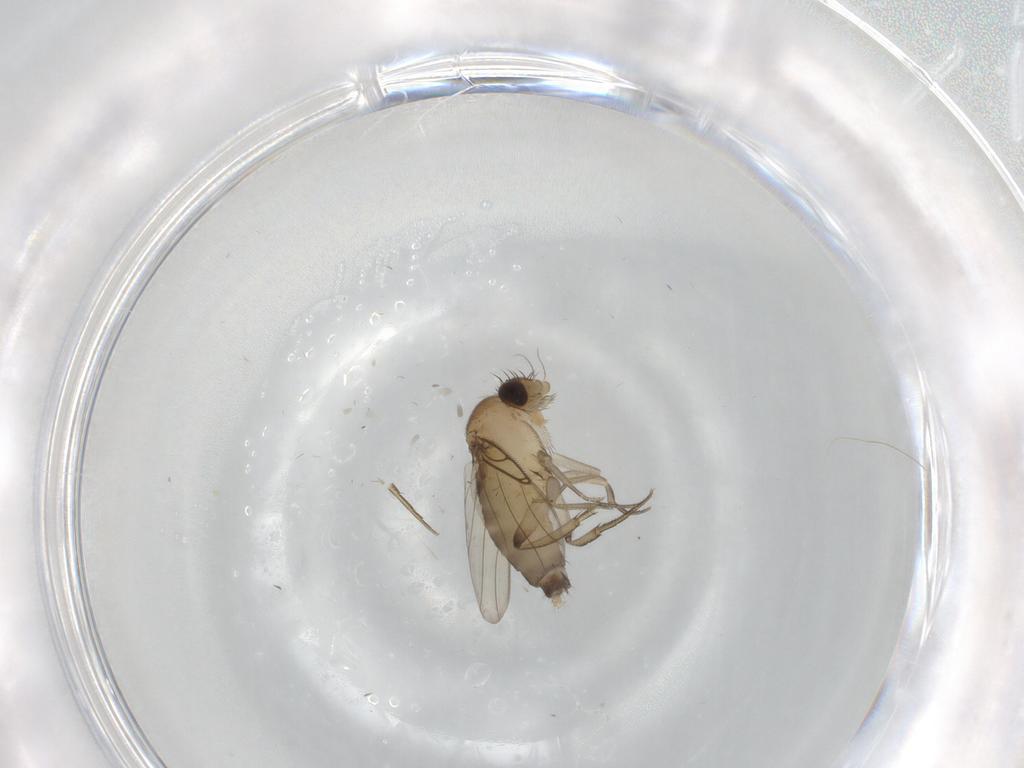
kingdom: Animalia
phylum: Arthropoda
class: Insecta
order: Diptera
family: Phoridae
